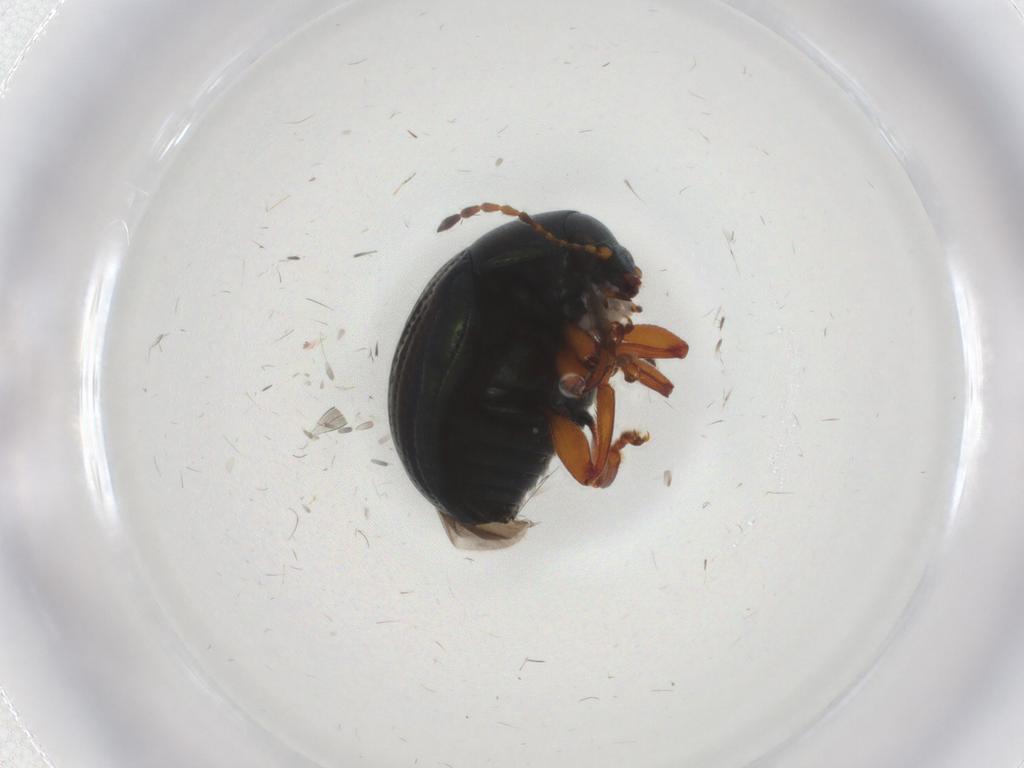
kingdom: Animalia
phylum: Arthropoda
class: Insecta
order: Coleoptera
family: Chrysomelidae
